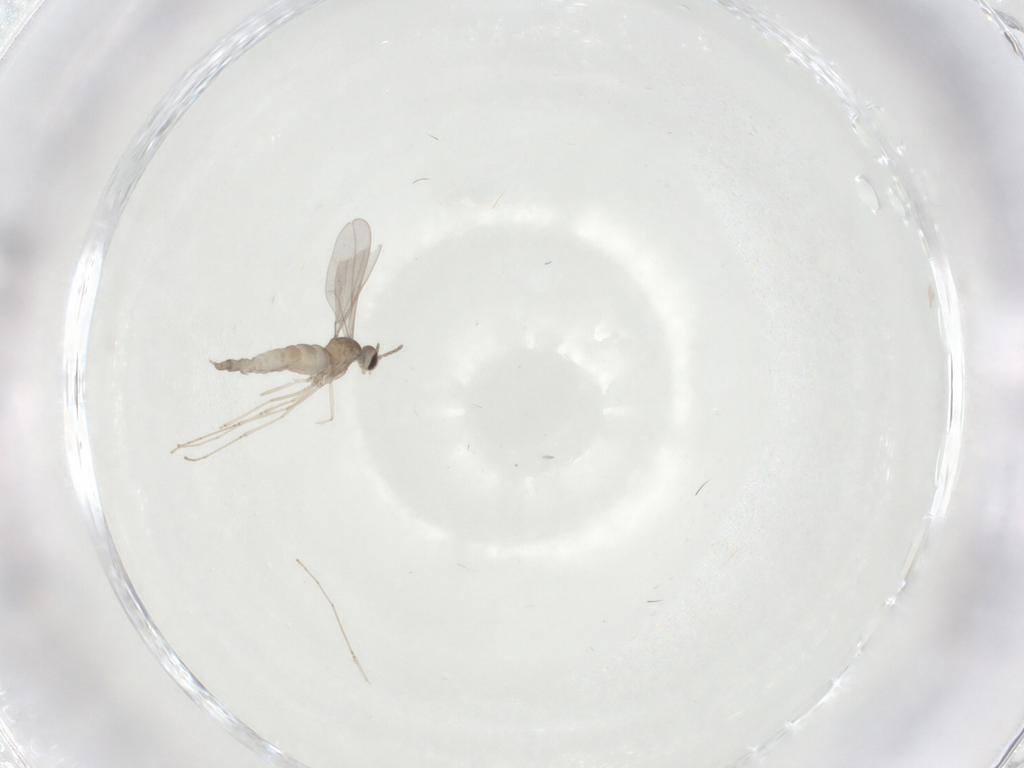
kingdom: Animalia
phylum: Arthropoda
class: Insecta
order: Diptera
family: Cecidomyiidae
